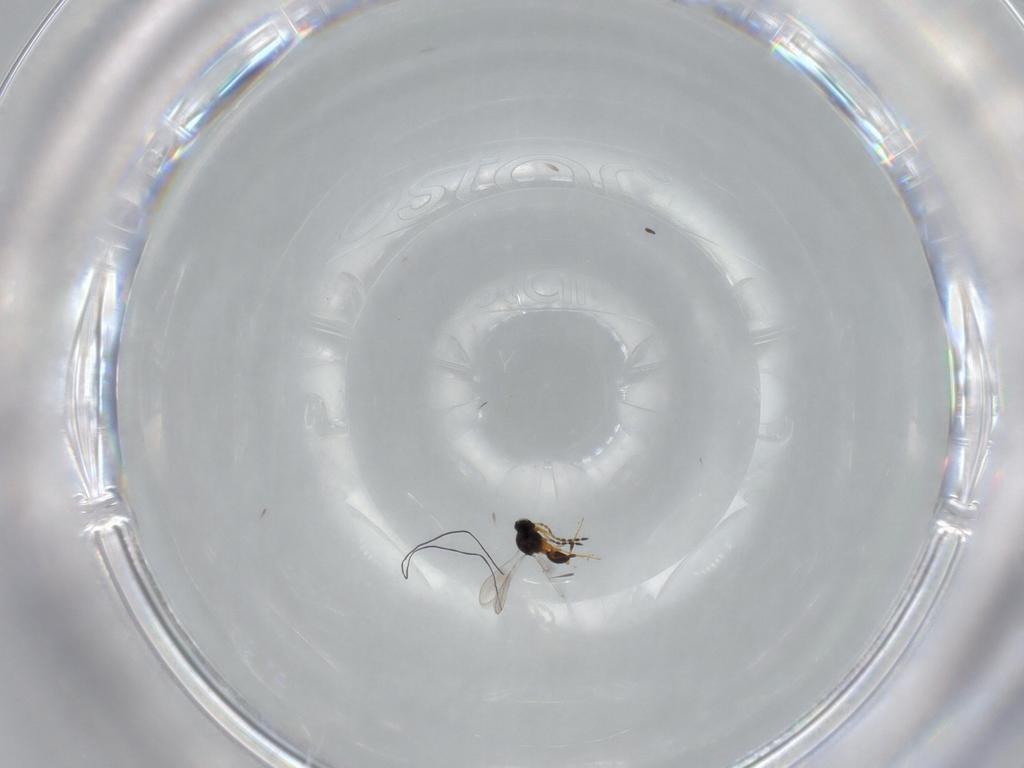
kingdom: Animalia
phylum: Arthropoda
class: Insecta
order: Hymenoptera
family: Platygastridae
